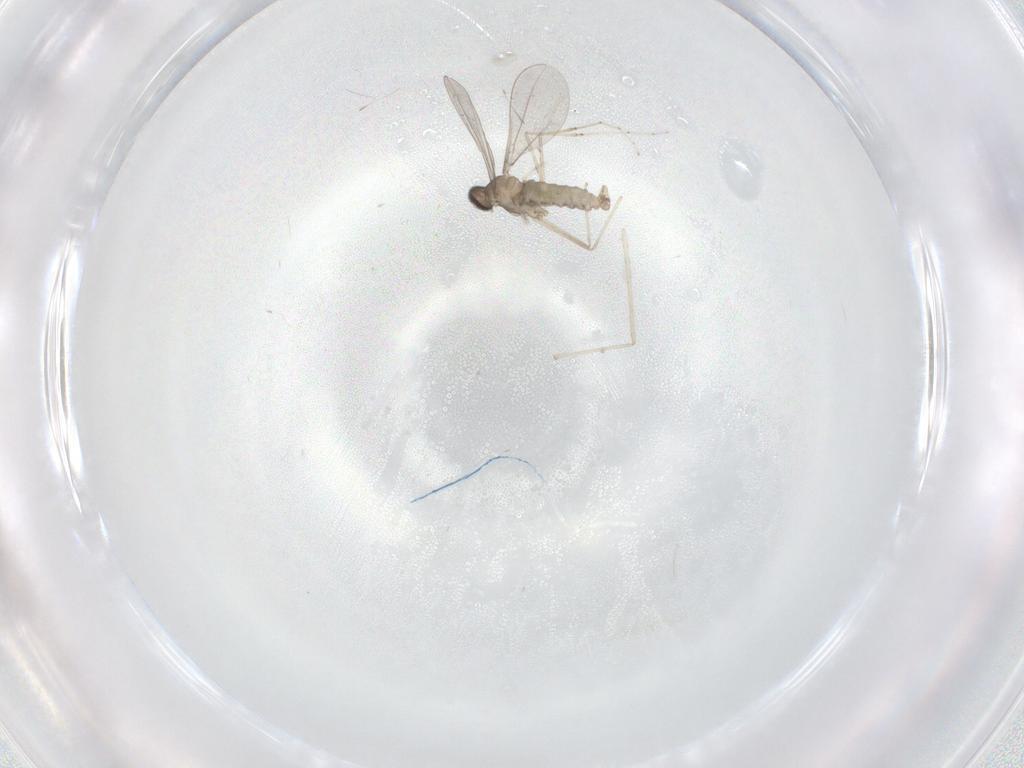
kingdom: Animalia
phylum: Arthropoda
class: Insecta
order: Diptera
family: Cecidomyiidae
